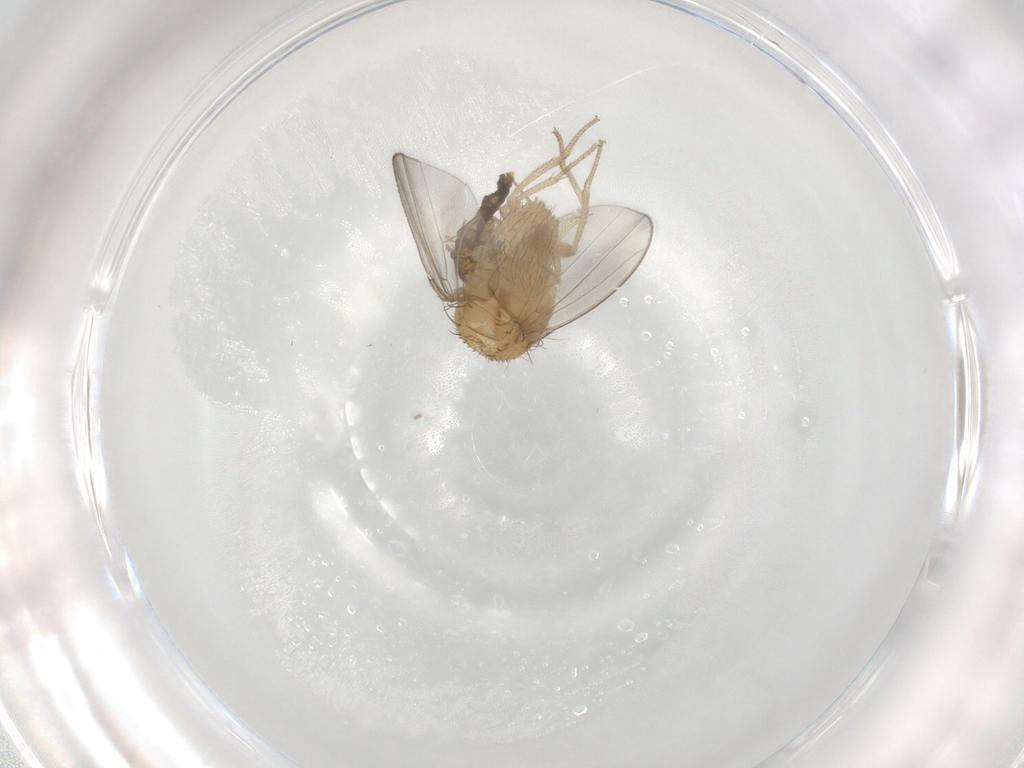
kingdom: Animalia
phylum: Arthropoda
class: Insecta
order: Diptera
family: Chironomidae
